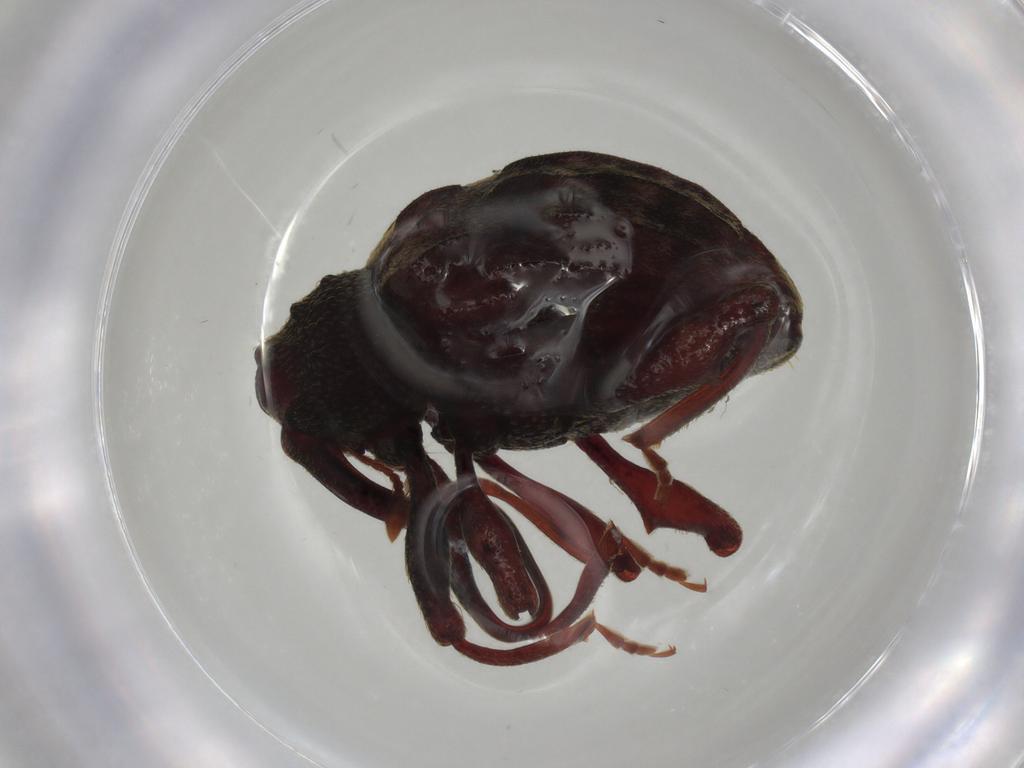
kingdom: Animalia
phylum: Arthropoda
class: Insecta
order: Coleoptera
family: Curculionidae
